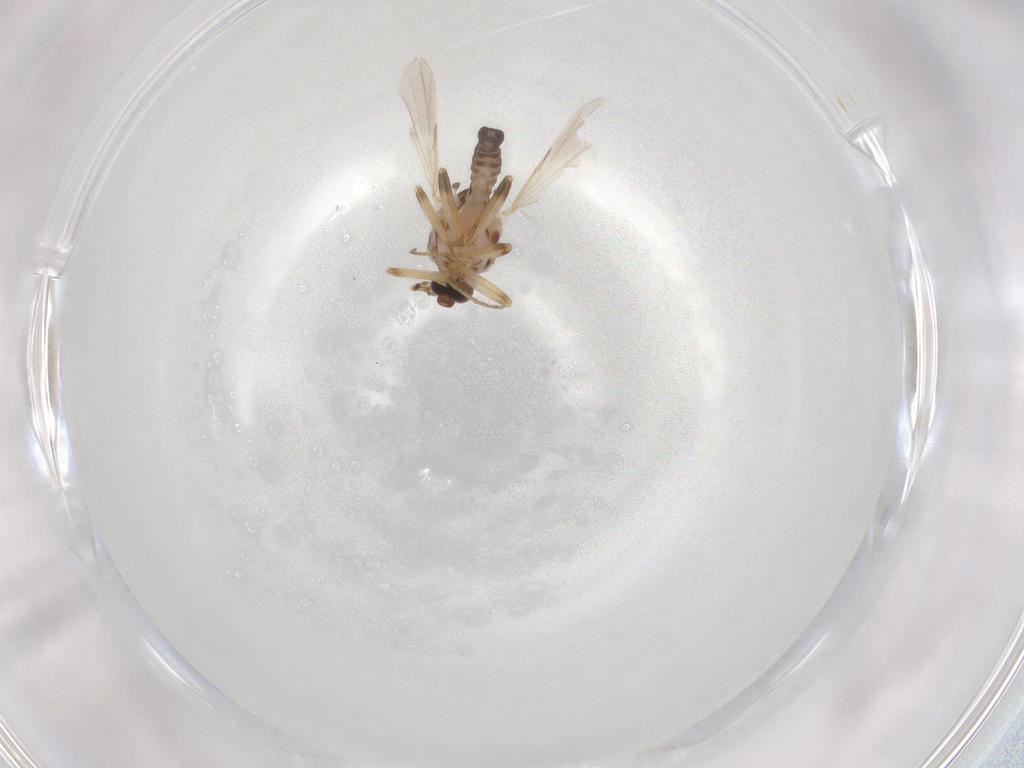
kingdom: Animalia
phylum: Arthropoda
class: Insecta
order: Diptera
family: Ceratopogonidae
